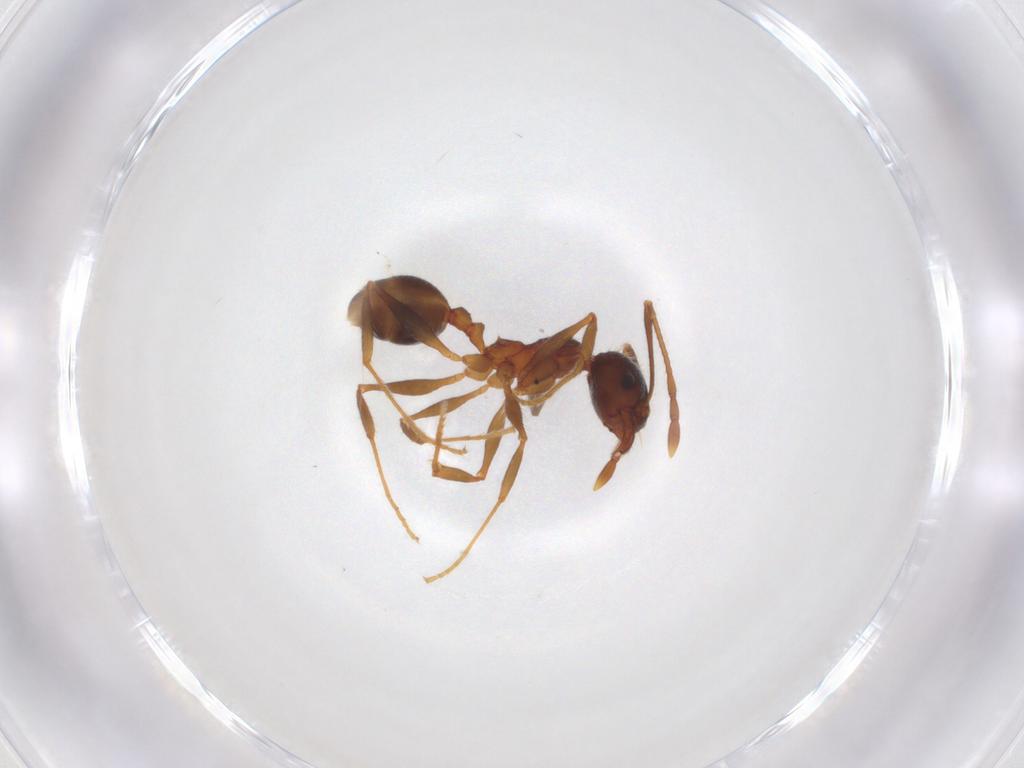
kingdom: Animalia
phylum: Arthropoda
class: Insecta
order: Hymenoptera
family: Formicidae
